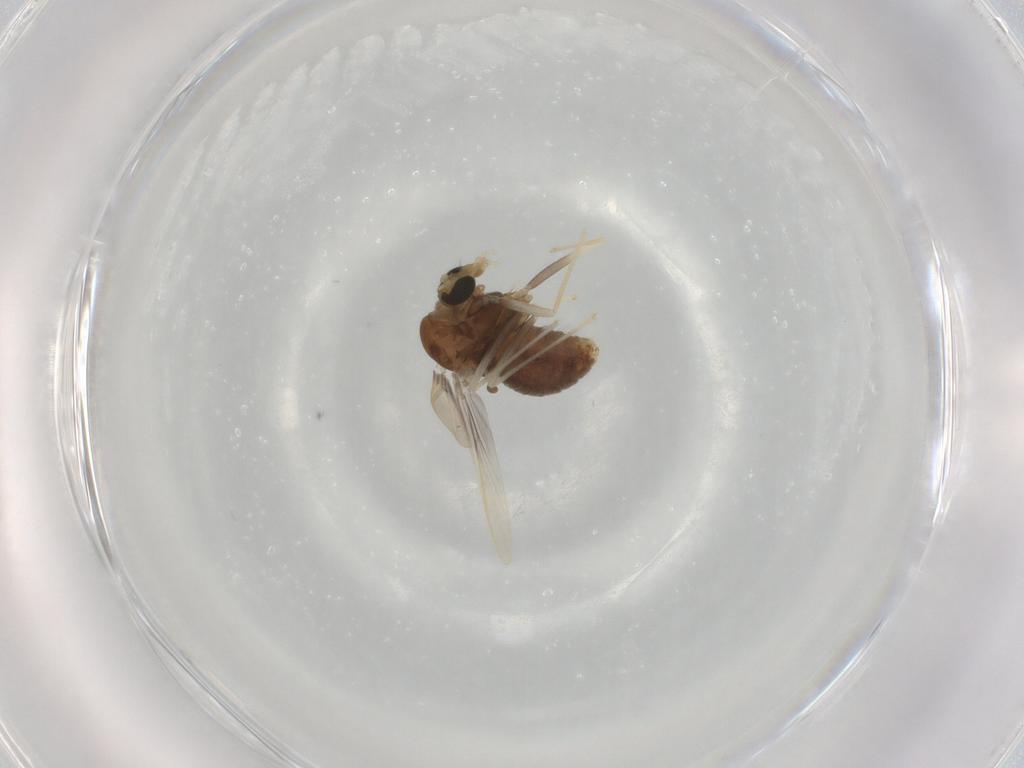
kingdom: Animalia
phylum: Arthropoda
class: Insecta
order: Diptera
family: Chironomidae
